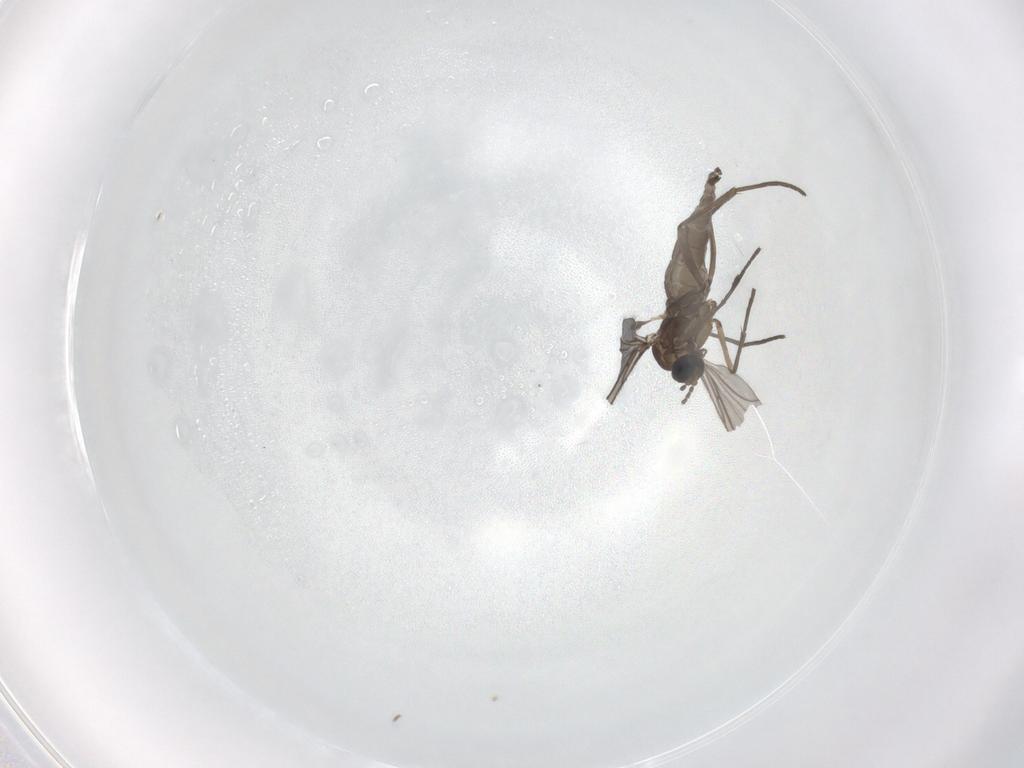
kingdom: Animalia
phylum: Arthropoda
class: Insecta
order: Diptera
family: Sciaridae
